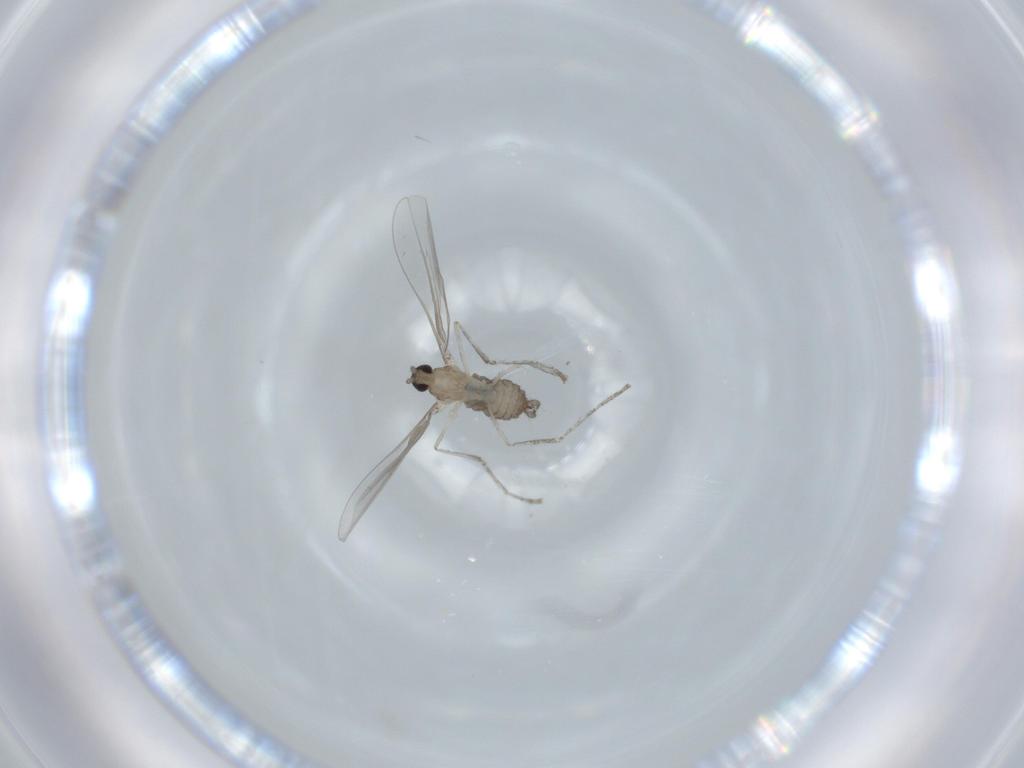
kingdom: Animalia
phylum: Arthropoda
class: Insecta
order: Diptera
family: Cecidomyiidae
